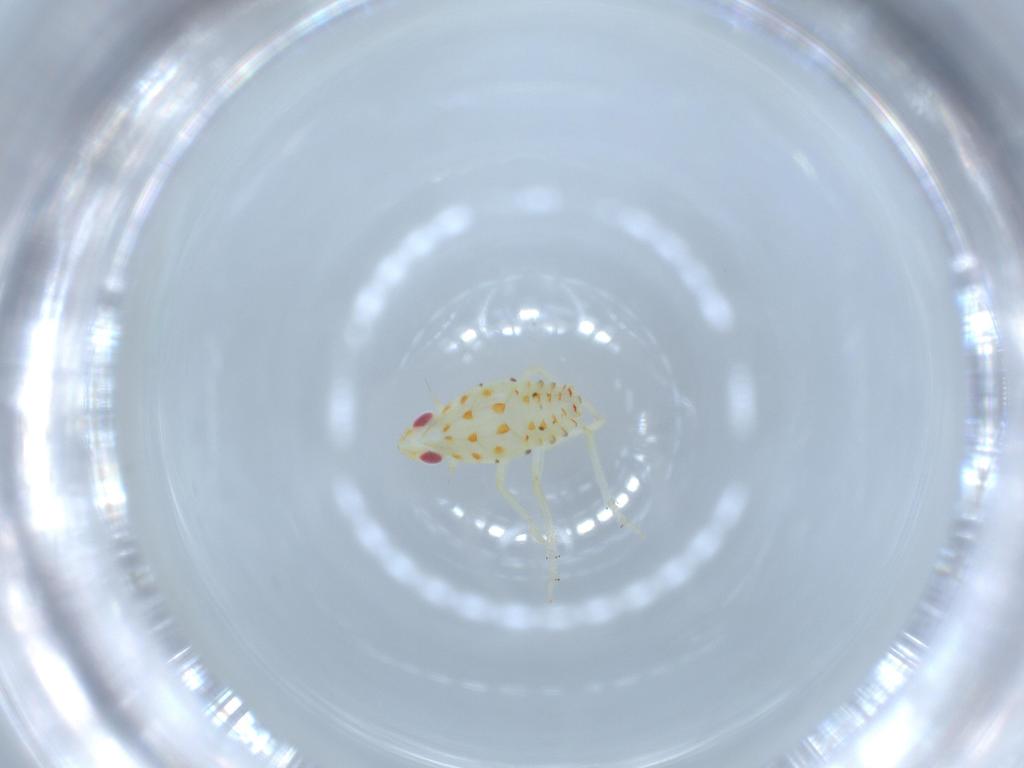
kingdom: Animalia
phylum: Arthropoda
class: Insecta
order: Hemiptera
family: Tropiduchidae
